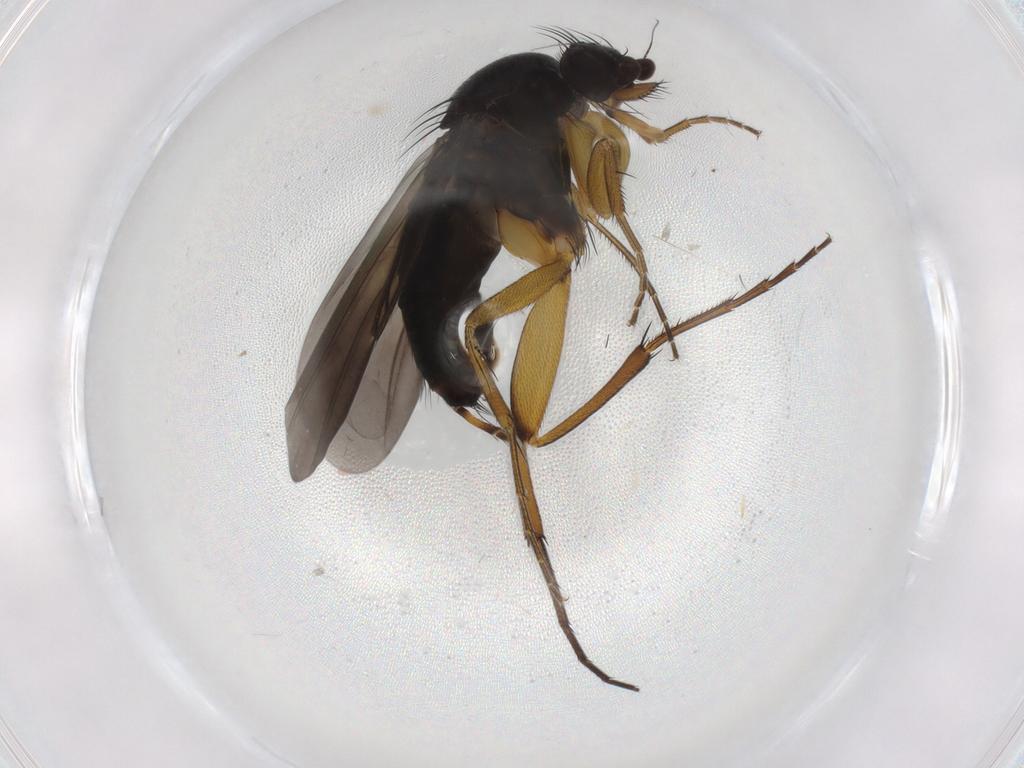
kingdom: Animalia
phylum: Arthropoda
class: Insecta
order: Diptera
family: Phoridae
